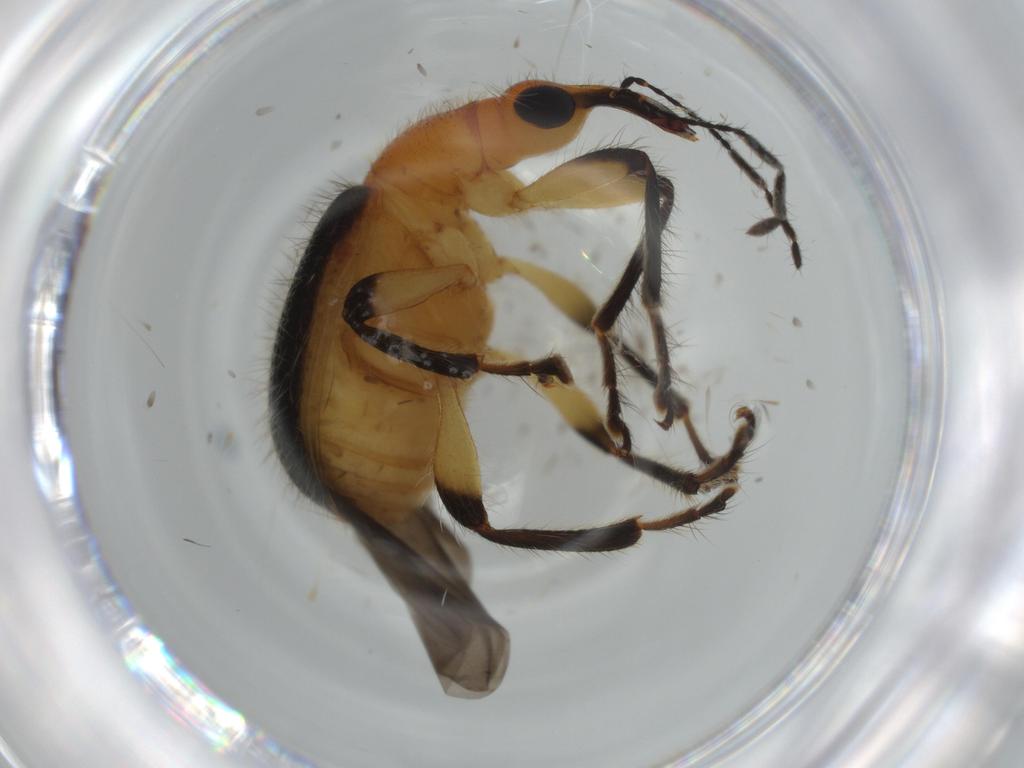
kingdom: Animalia
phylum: Arthropoda
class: Insecta
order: Coleoptera
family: Attelabidae
